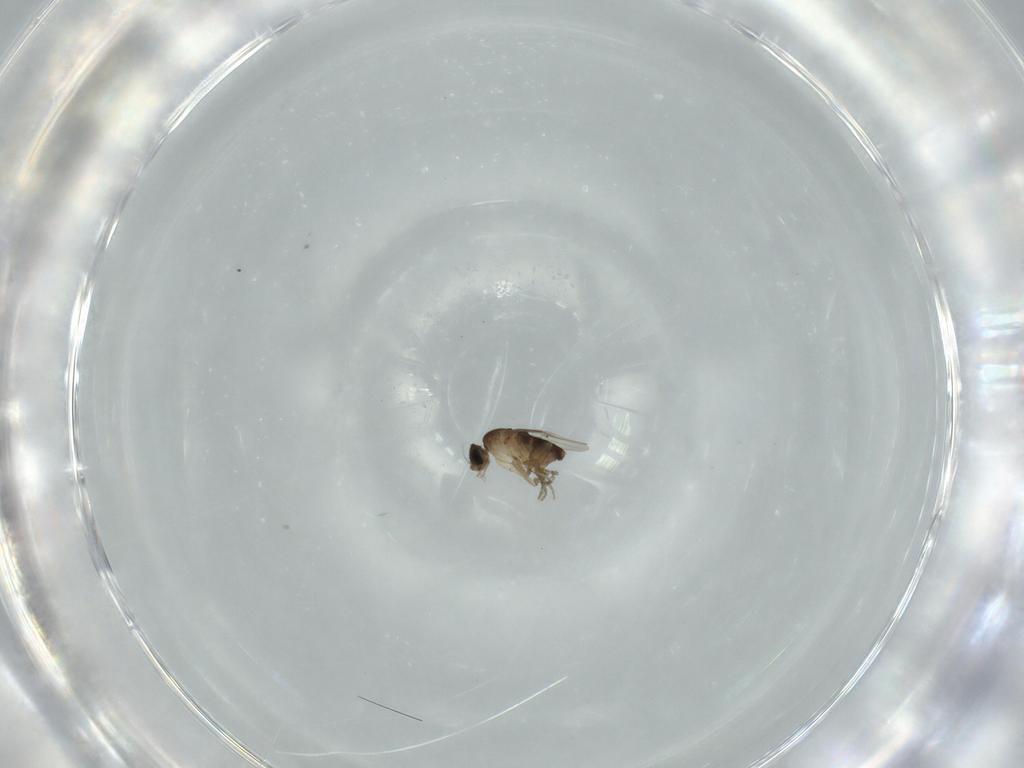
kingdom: Animalia
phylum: Arthropoda
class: Insecta
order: Diptera
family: Phoridae
